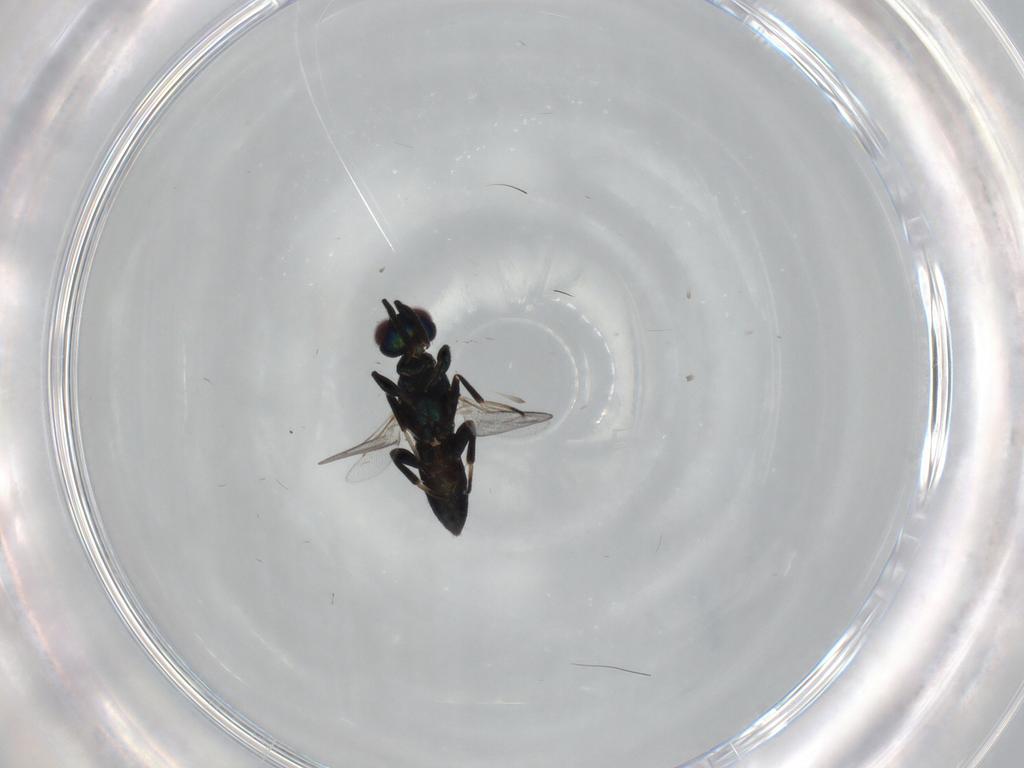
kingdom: Animalia
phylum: Arthropoda
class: Insecta
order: Hymenoptera
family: Eupelmidae
